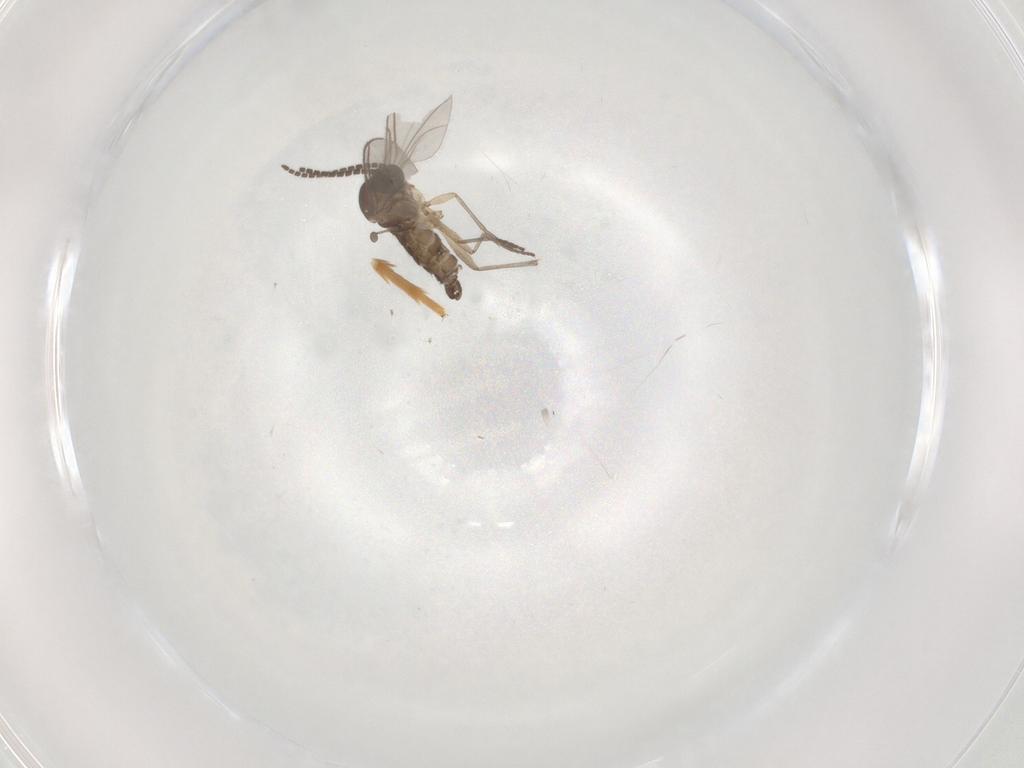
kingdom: Animalia
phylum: Arthropoda
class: Insecta
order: Diptera
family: Sciaridae
